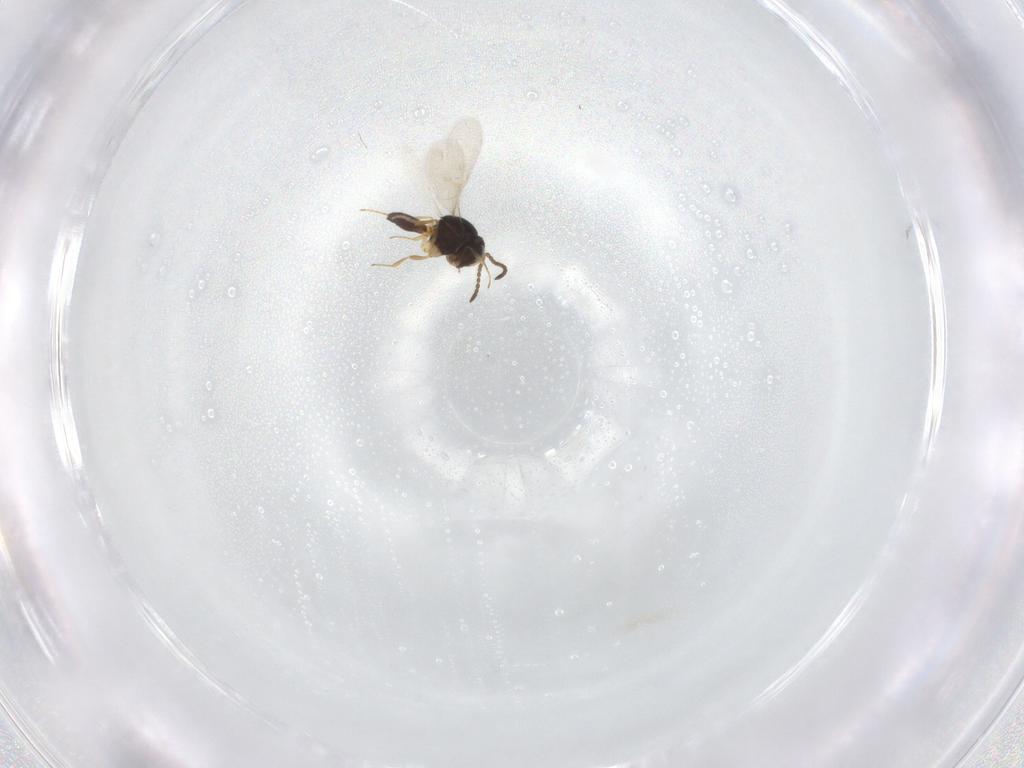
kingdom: Animalia
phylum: Arthropoda
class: Insecta
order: Hymenoptera
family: Scelionidae
